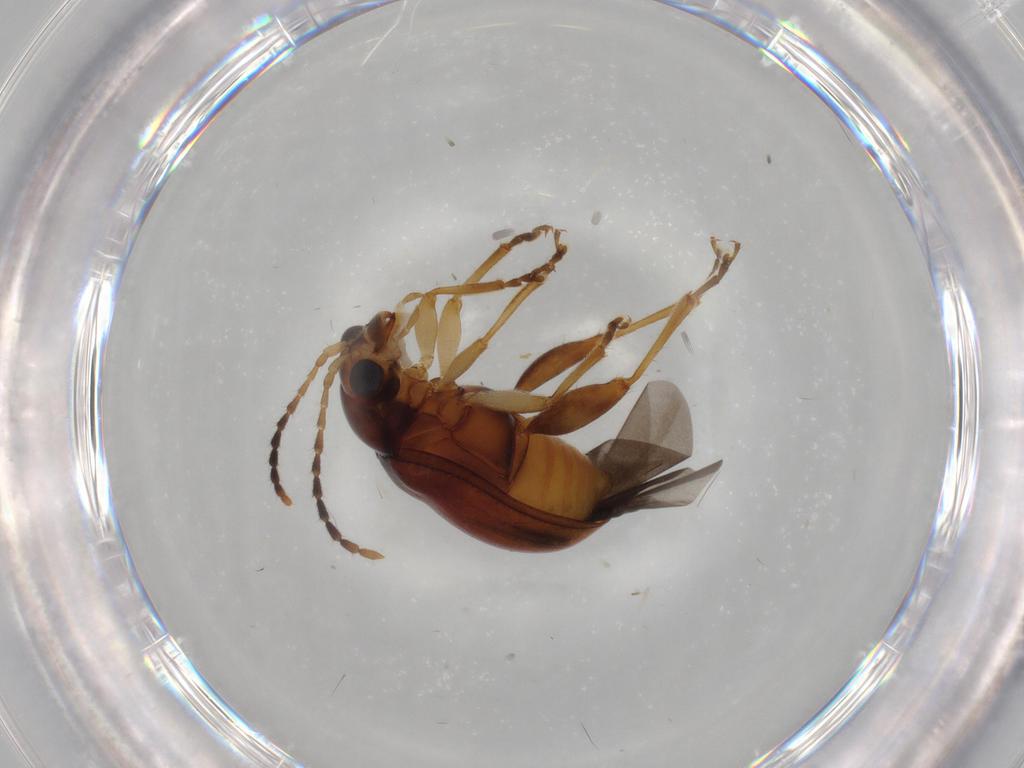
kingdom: Animalia
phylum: Arthropoda
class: Insecta
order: Coleoptera
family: Chrysomelidae
